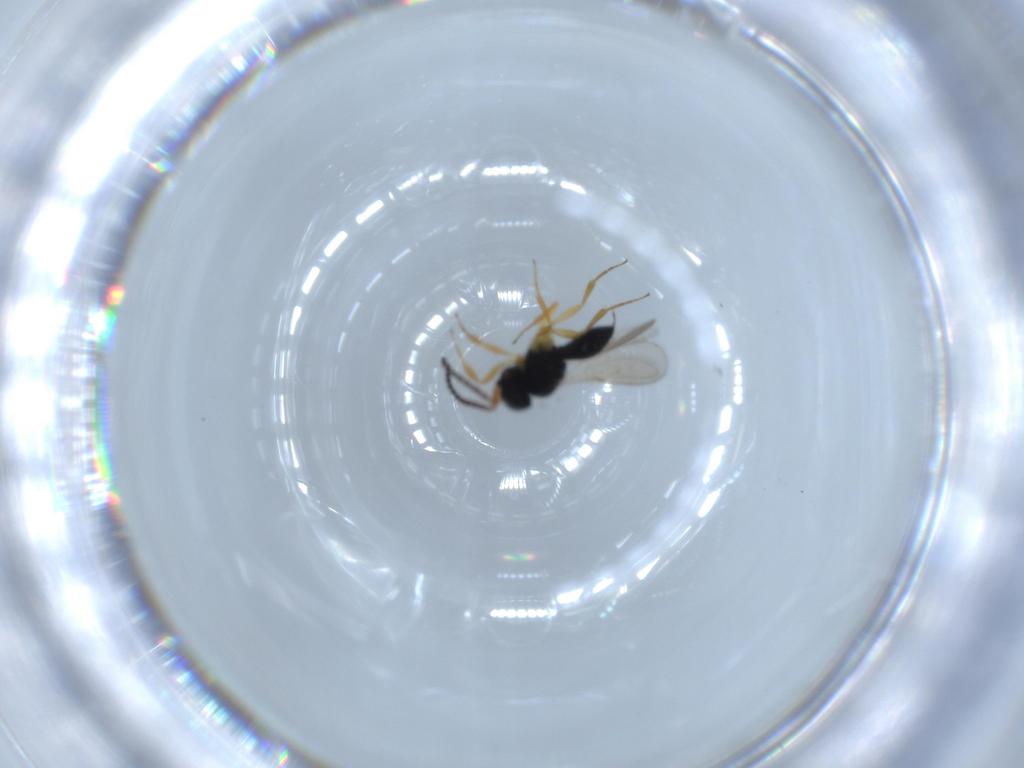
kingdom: Animalia
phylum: Arthropoda
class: Insecta
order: Hymenoptera
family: Scelionidae
